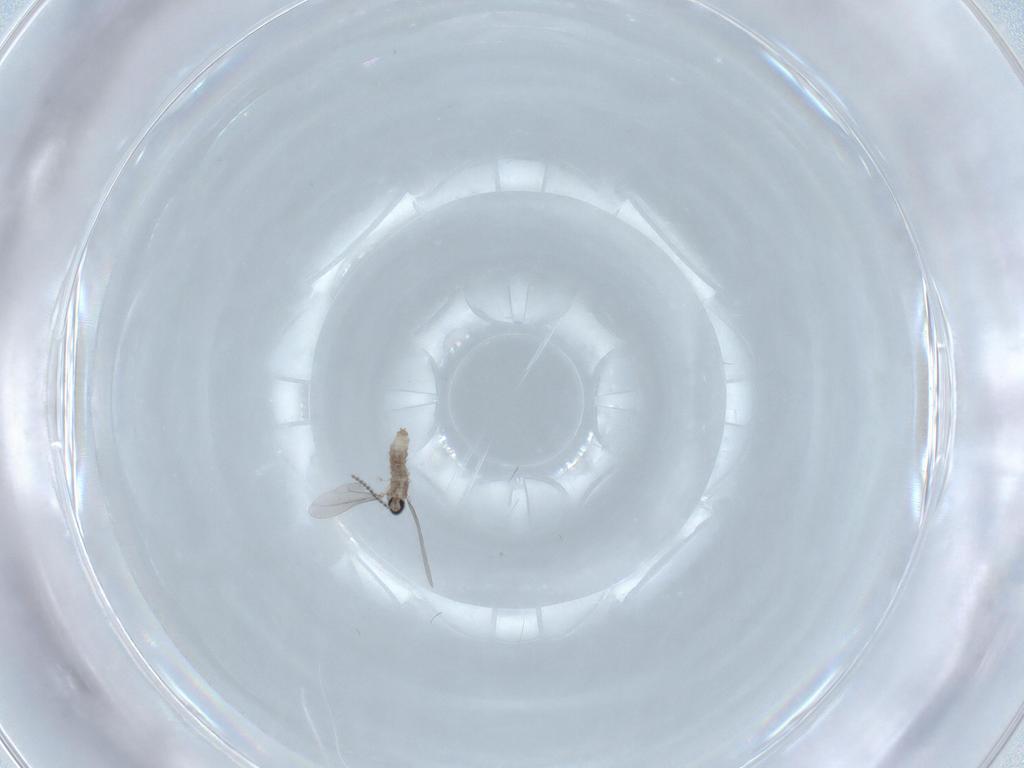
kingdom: Animalia
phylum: Arthropoda
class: Insecta
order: Diptera
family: Cecidomyiidae
